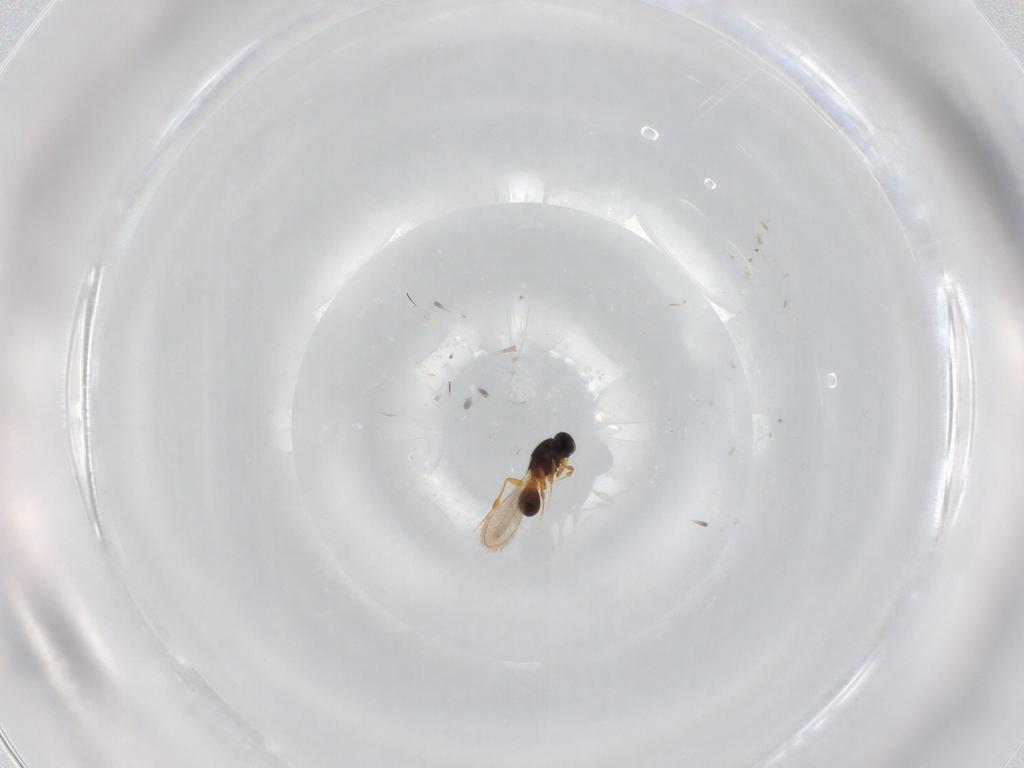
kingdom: Animalia
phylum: Arthropoda
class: Insecta
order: Hymenoptera
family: Platygastridae
